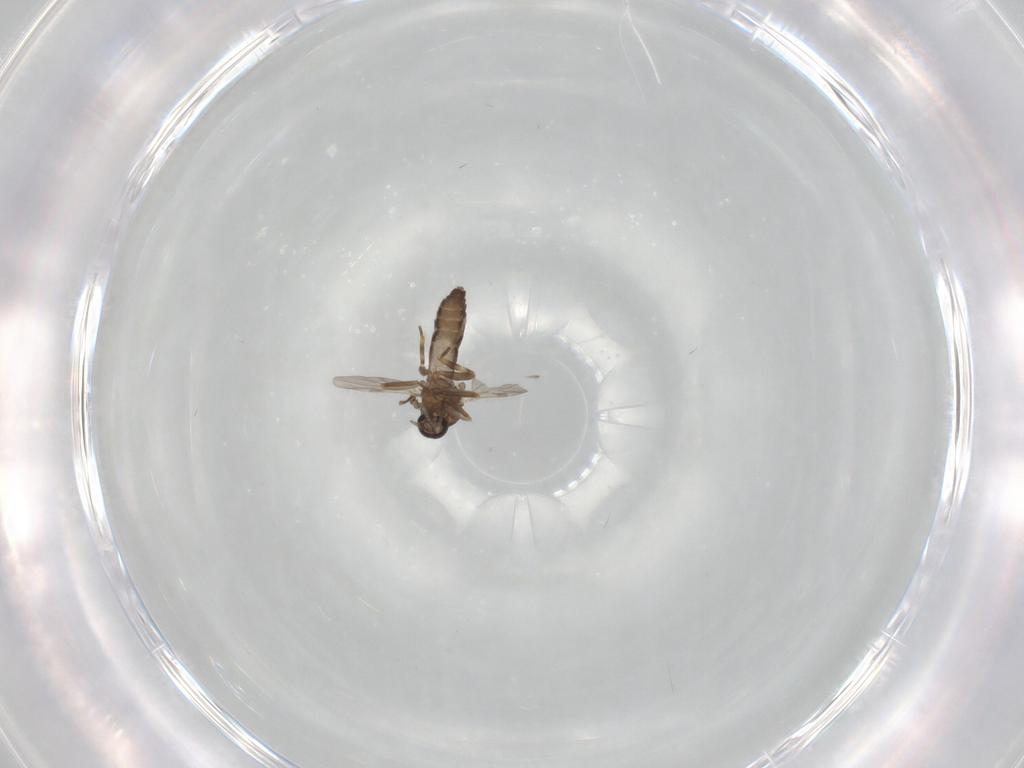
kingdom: Animalia
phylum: Arthropoda
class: Insecta
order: Diptera
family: Ceratopogonidae
